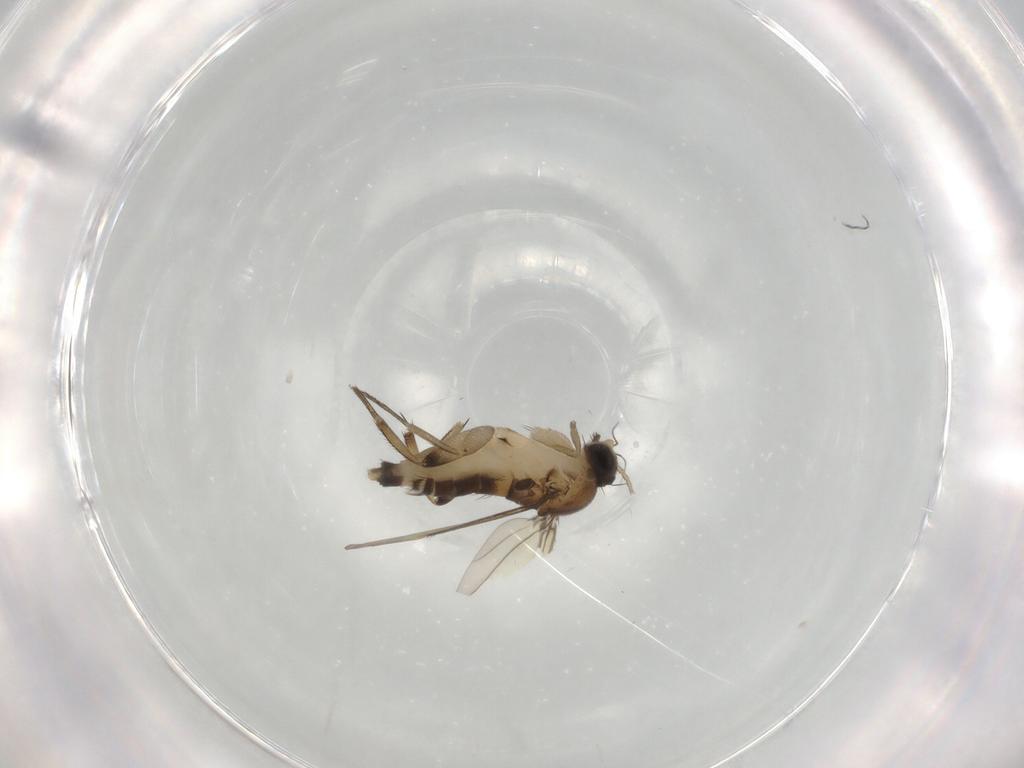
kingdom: Animalia
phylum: Arthropoda
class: Insecta
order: Diptera
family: Phoridae
